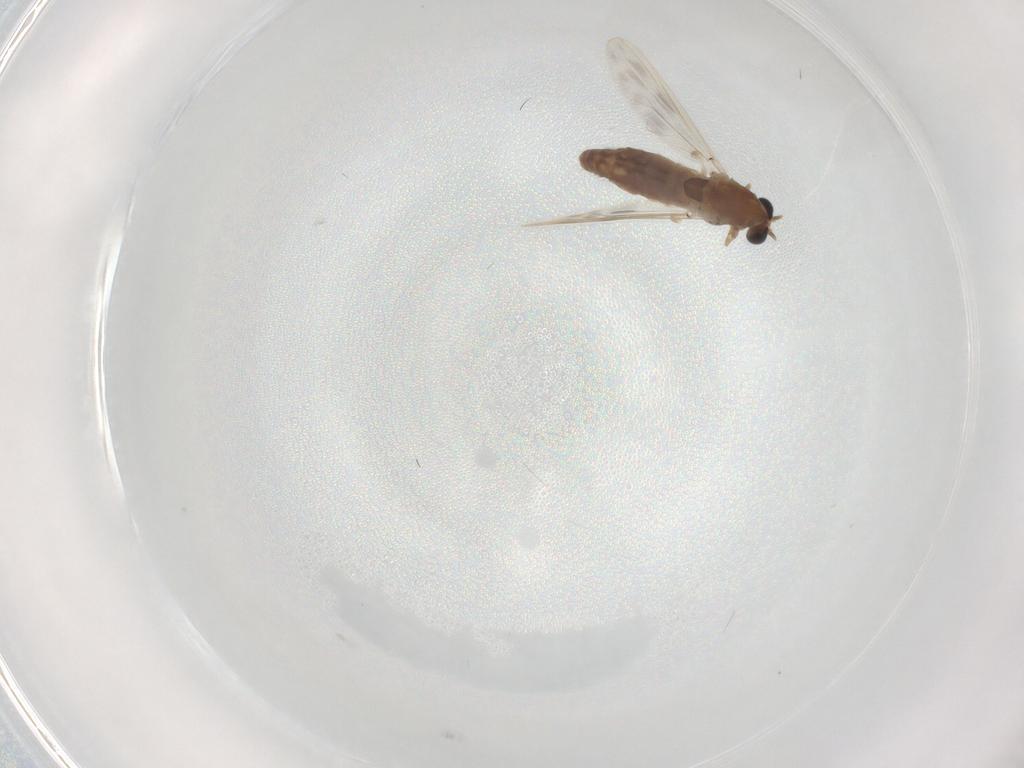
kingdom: Animalia
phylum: Arthropoda
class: Insecta
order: Diptera
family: Chironomidae
